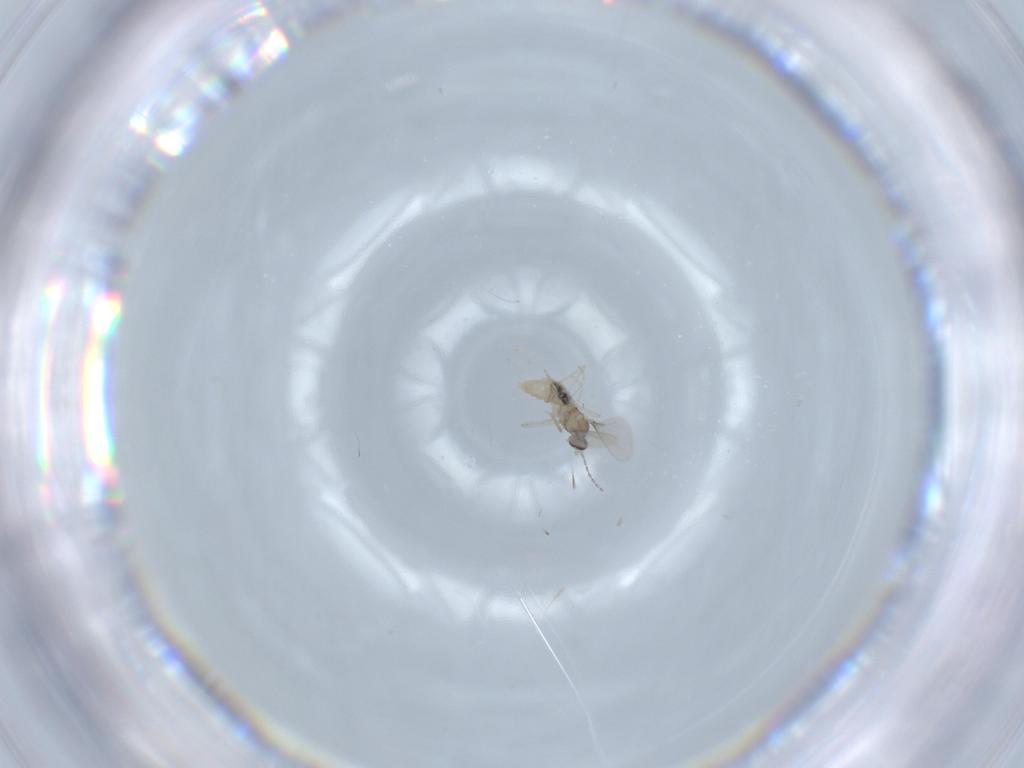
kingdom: Animalia
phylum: Arthropoda
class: Insecta
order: Diptera
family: Cecidomyiidae
